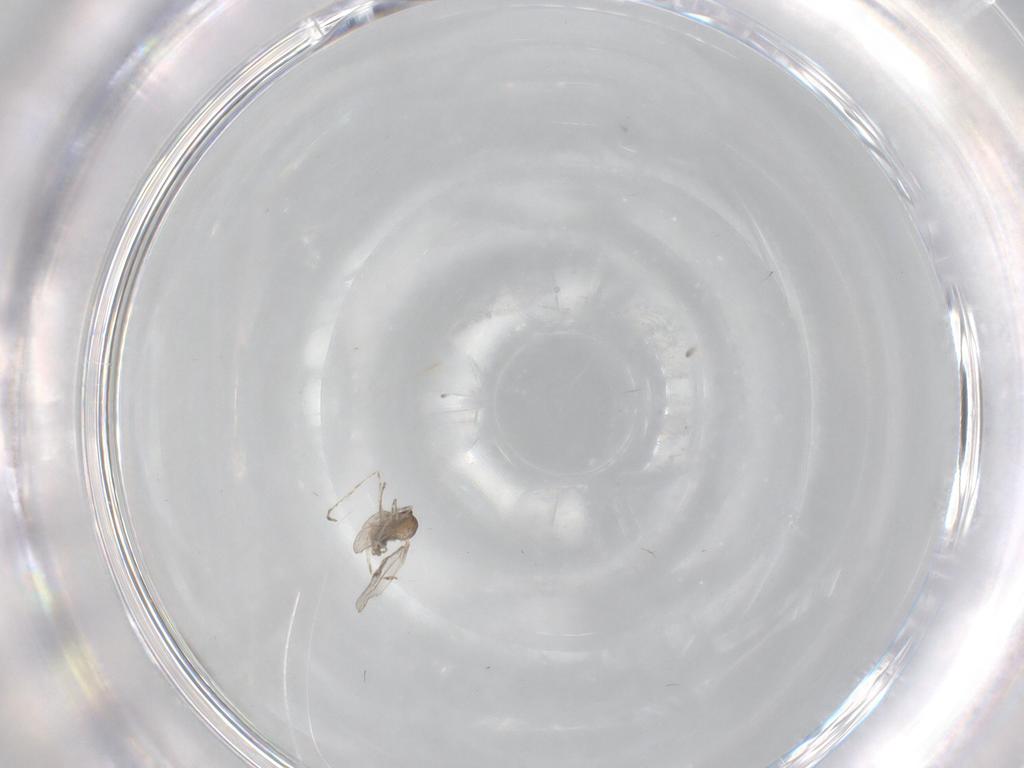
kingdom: Animalia
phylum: Arthropoda
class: Insecta
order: Diptera
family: Cecidomyiidae
